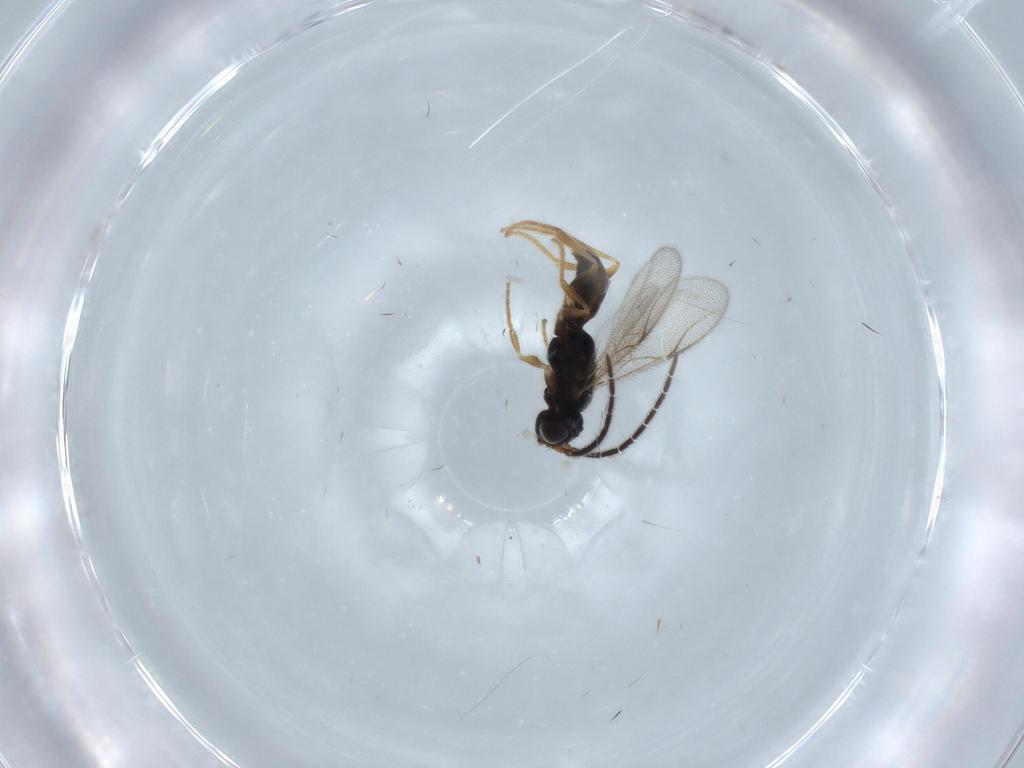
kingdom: Animalia
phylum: Arthropoda
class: Insecta
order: Hymenoptera
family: Dryinidae
